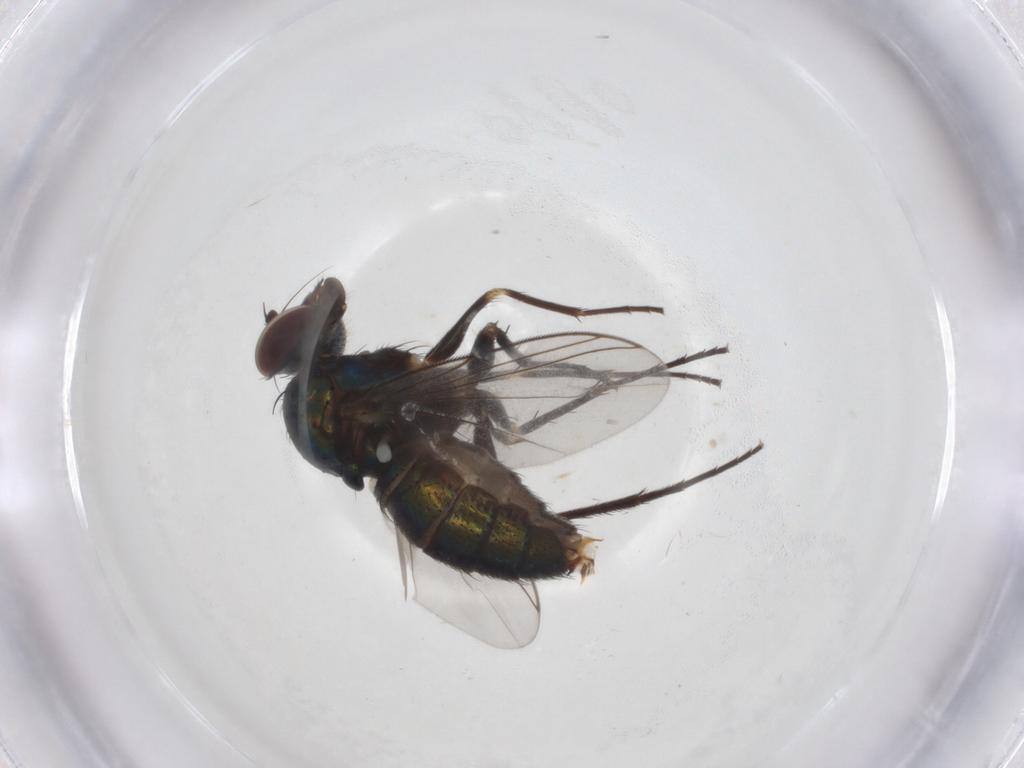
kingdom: Animalia
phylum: Arthropoda
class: Insecta
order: Diptera
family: Dolichopodidae
